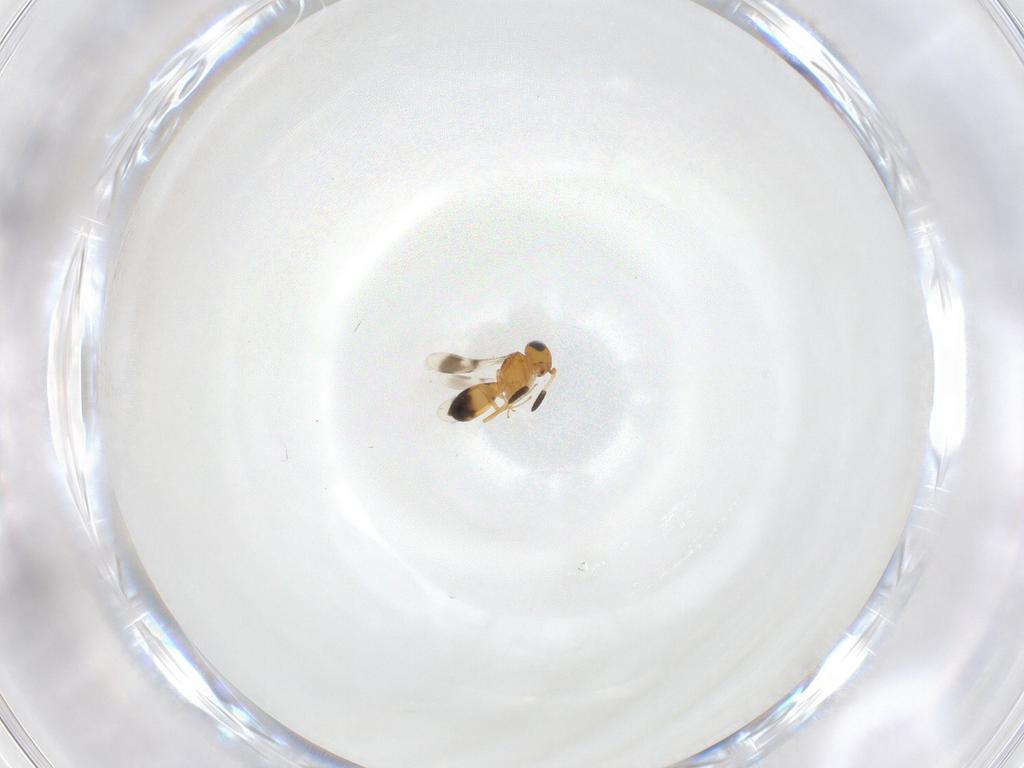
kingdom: Animalia
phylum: Arthropoda
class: Insecta
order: Hymenoptera
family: Scelionidae
